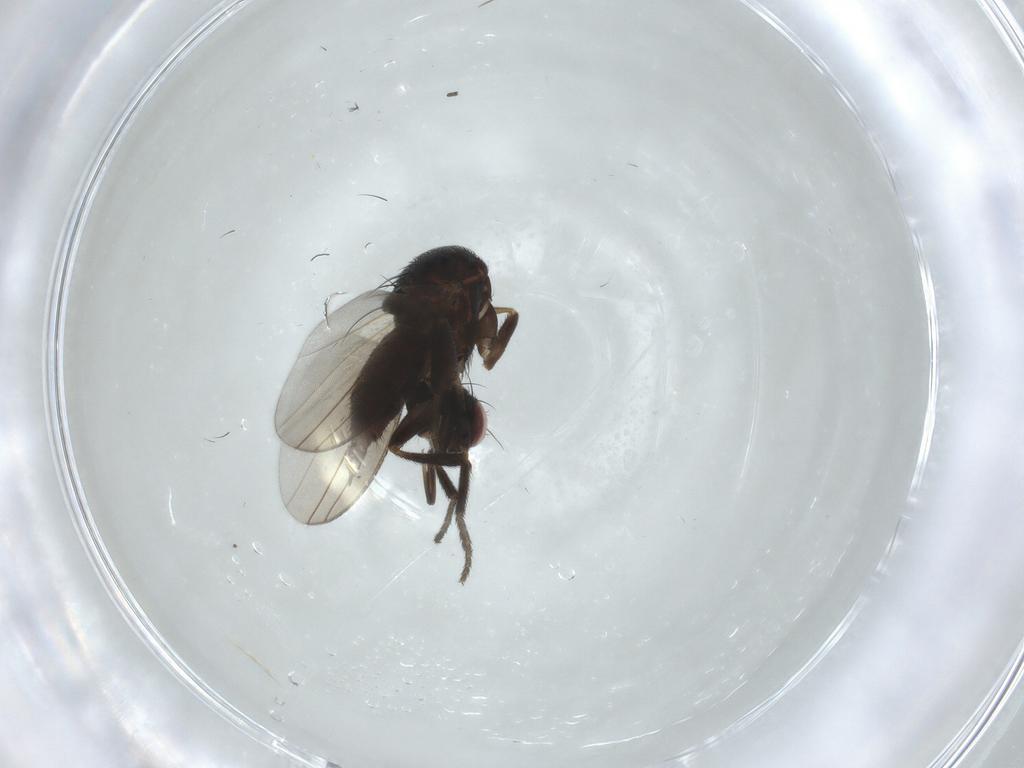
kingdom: Animalia
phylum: Arthropoda
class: Insecta
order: Diptera
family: Milichiidae
